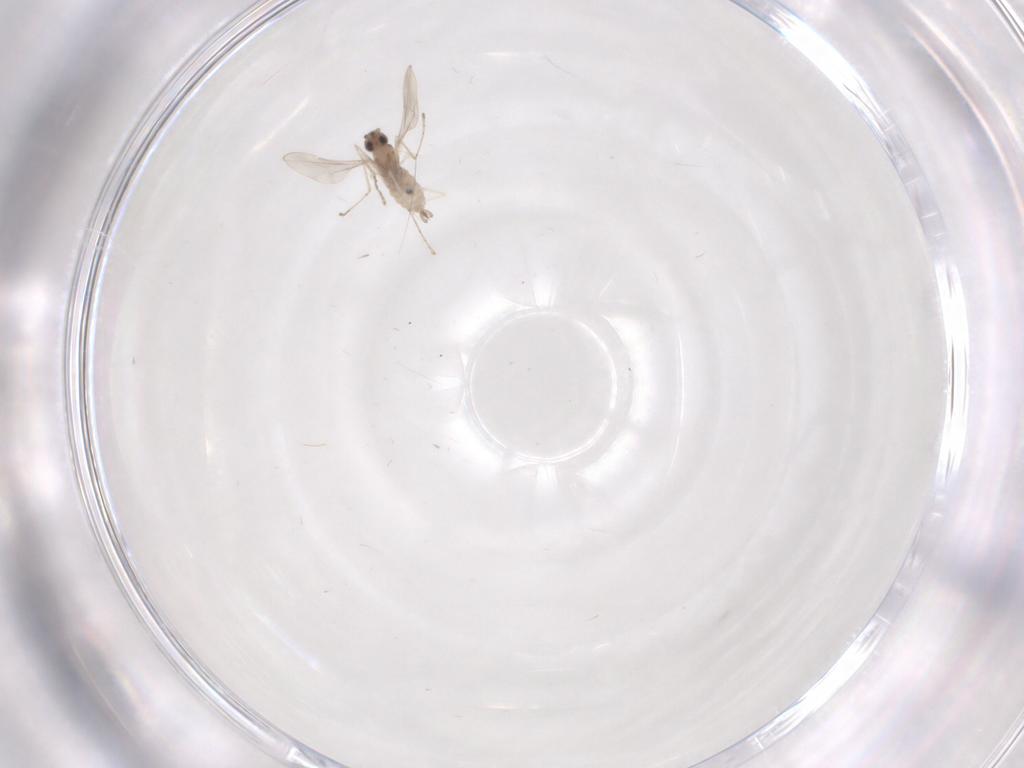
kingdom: Animalia
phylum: Arthropoda
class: Insecta
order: Diptera
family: Cecidomyiidae
